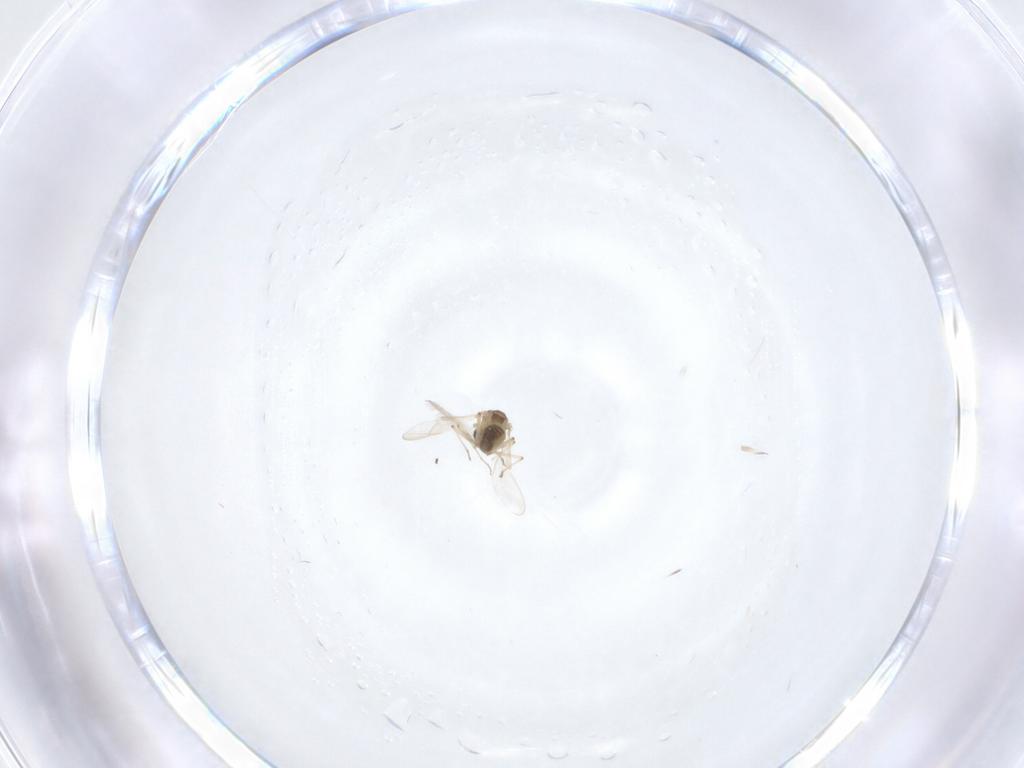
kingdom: Animalia
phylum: Arthropoda
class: Insecta
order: Diptera
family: Chironomidae
